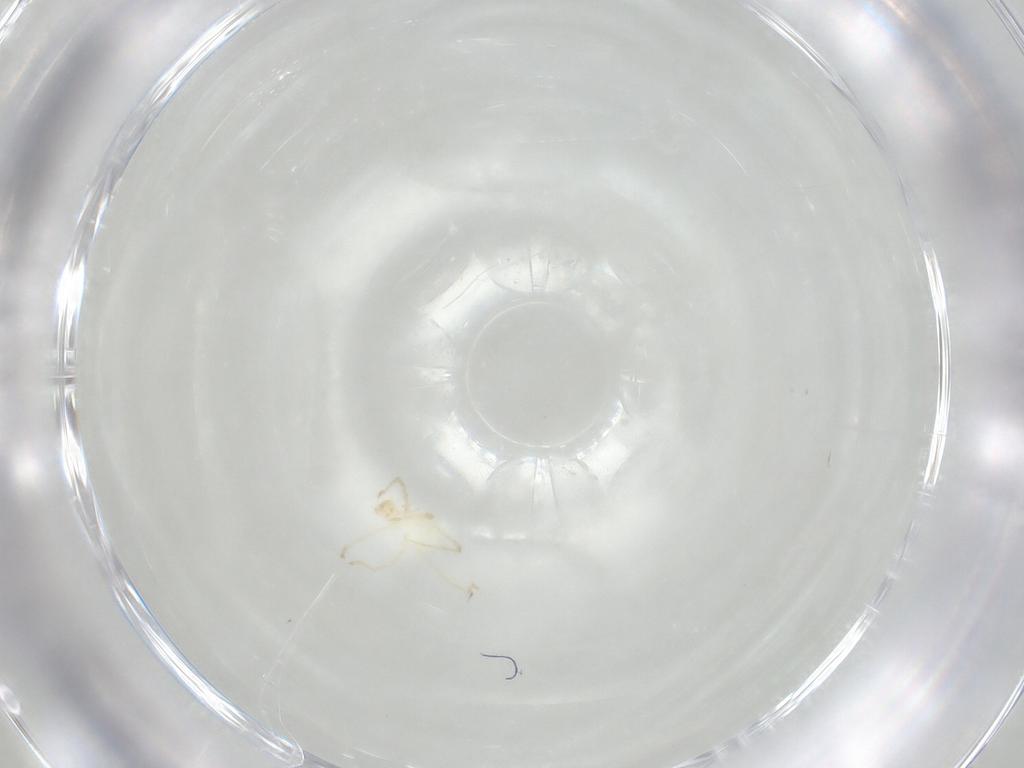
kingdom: Animalia
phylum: Arthropoda
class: Arachnida
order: Trombidiformes
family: Erythraeidae
